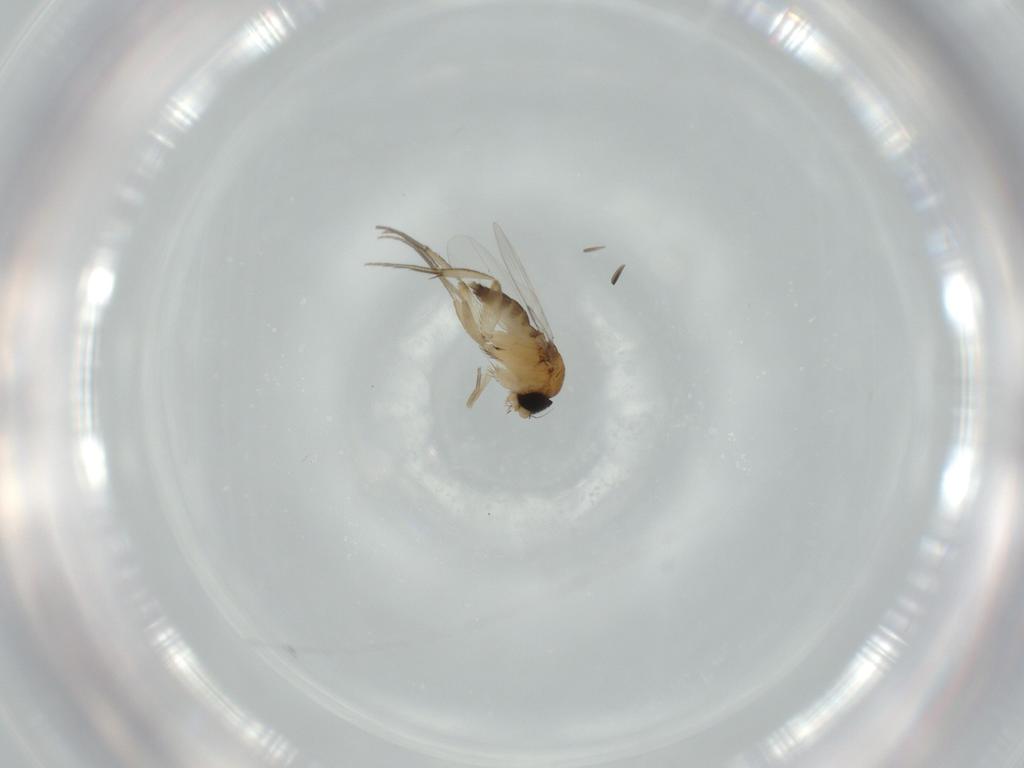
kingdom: Animalia
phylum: Arthropoda
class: Insecta
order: Diptera
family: Phoridae
